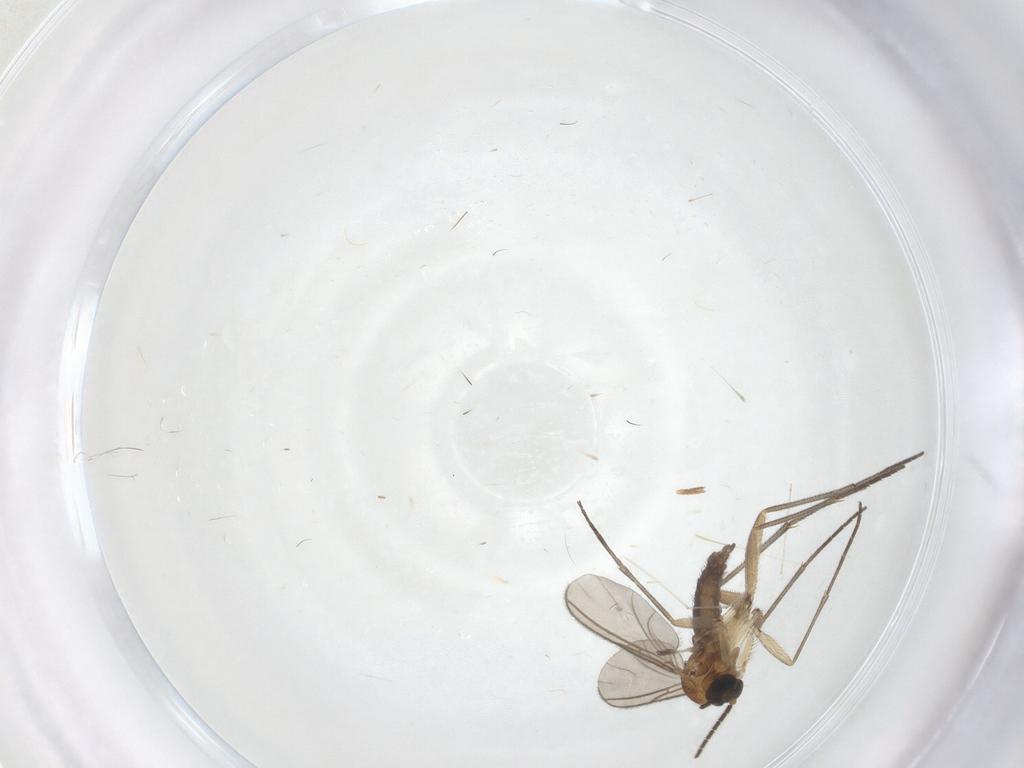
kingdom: Animalia
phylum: Arthropoda
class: Insecta
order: Diptera
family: Sciaridae
